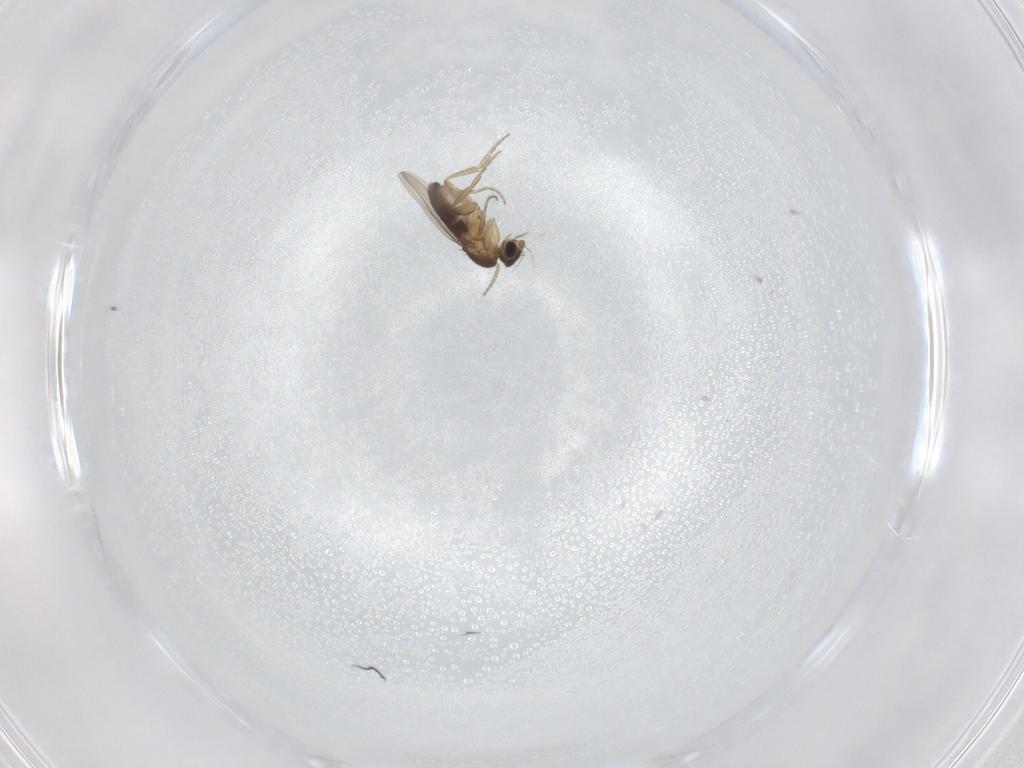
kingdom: Animalia
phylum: Arthropoda
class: Insecta
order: Diptera
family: Phoridae
